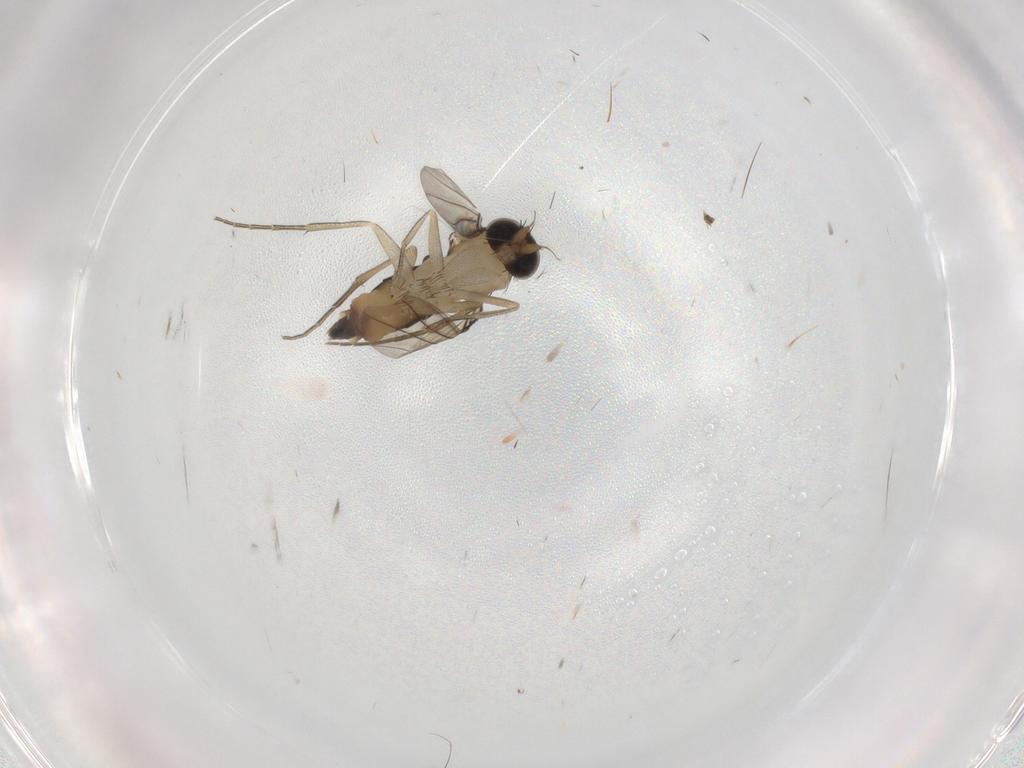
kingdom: Animalia
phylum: Arthropoda
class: Insecta
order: Diptera
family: Phoridae
